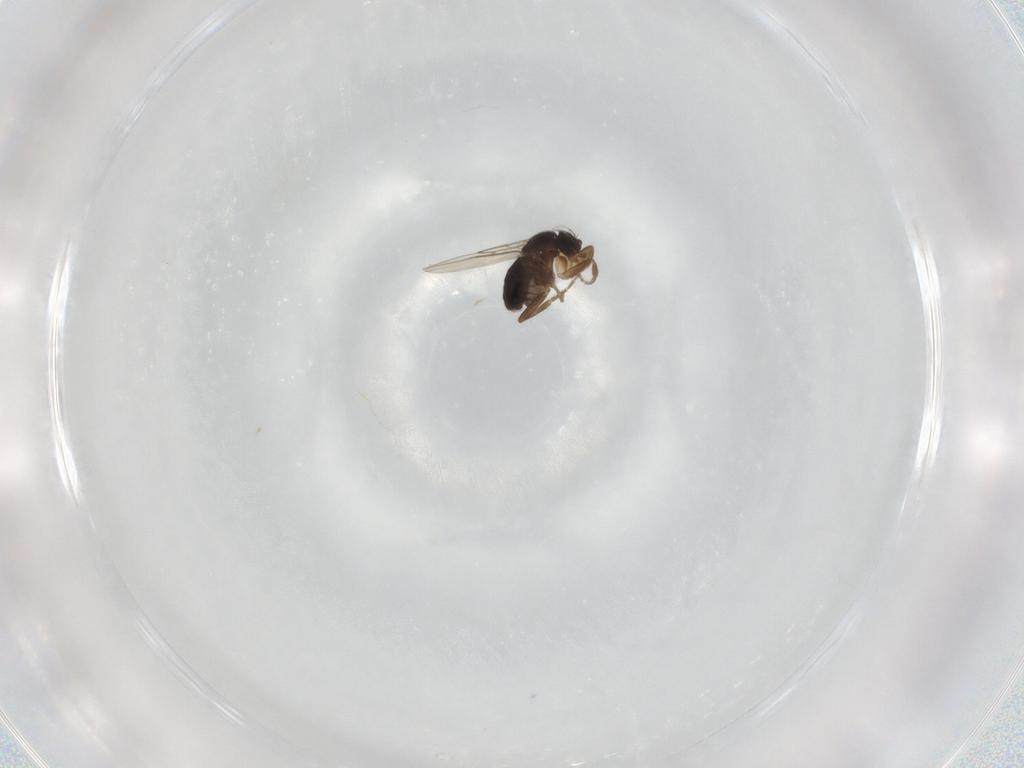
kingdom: Animalia
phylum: Arthropoda
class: Insecta
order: Diptera
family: Phoridae
